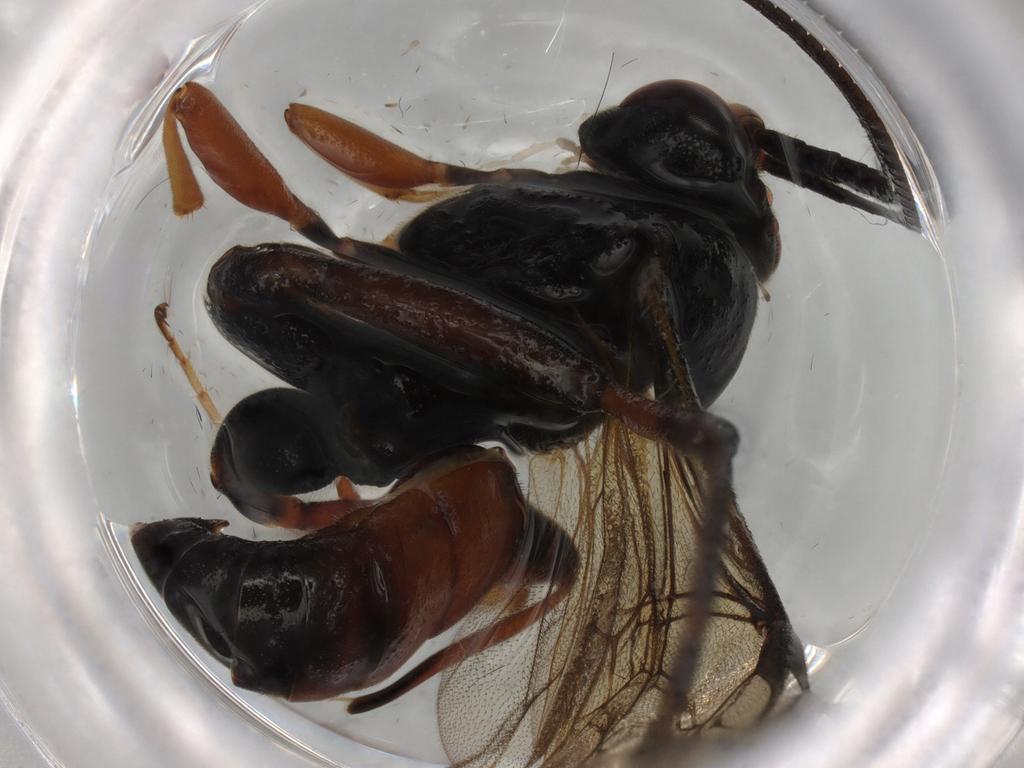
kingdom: Animalia
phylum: Arthropoda
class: Insecta
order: Hymenoptera
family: Ichneumonidae
